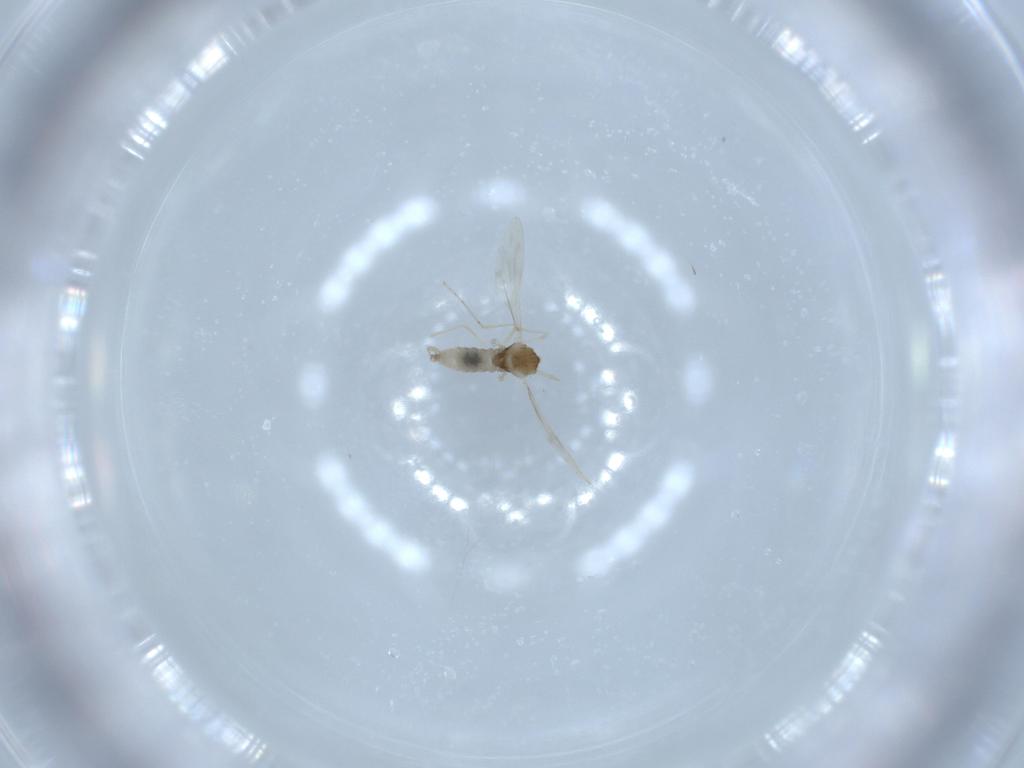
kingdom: Animalia
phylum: Arthropoda
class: Insecta
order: Diptera
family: Cecidomyiidae
